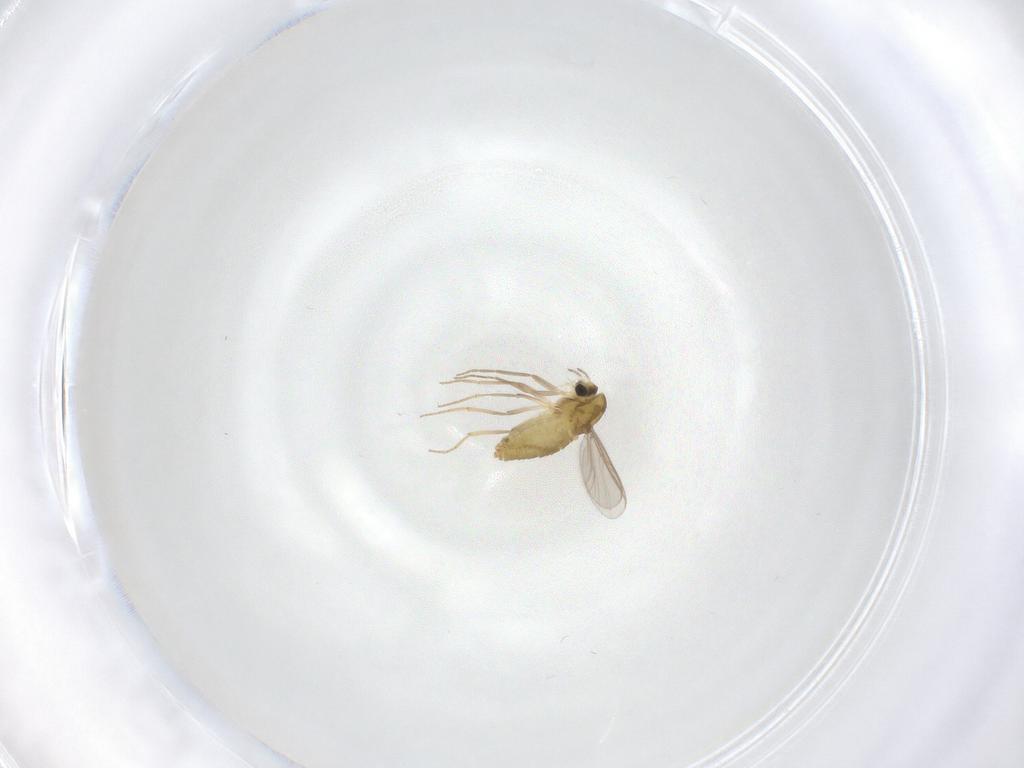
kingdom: Animalia
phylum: Arthropoda
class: Insecta
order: Diptera
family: Chironomidae
